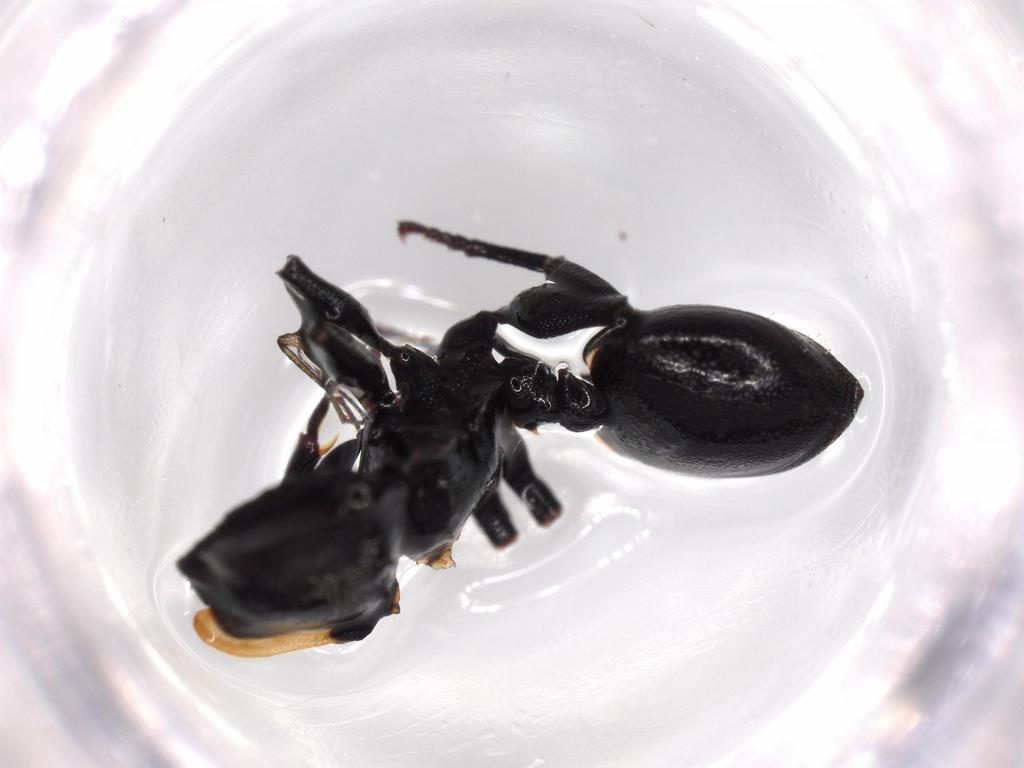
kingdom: Animalia
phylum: Arthropoda
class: Insecta
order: Hymenoptera
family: Formicidae
